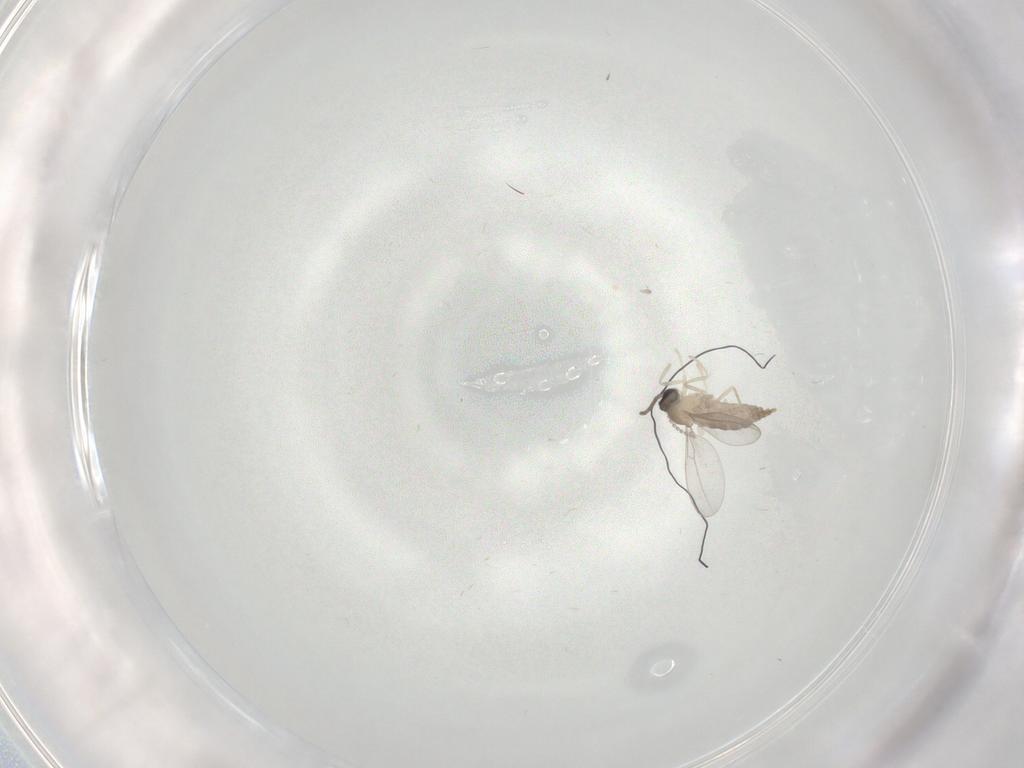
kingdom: Animalia
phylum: Arthropoda
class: Insecta
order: Diptera
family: Cecidomyiidae
